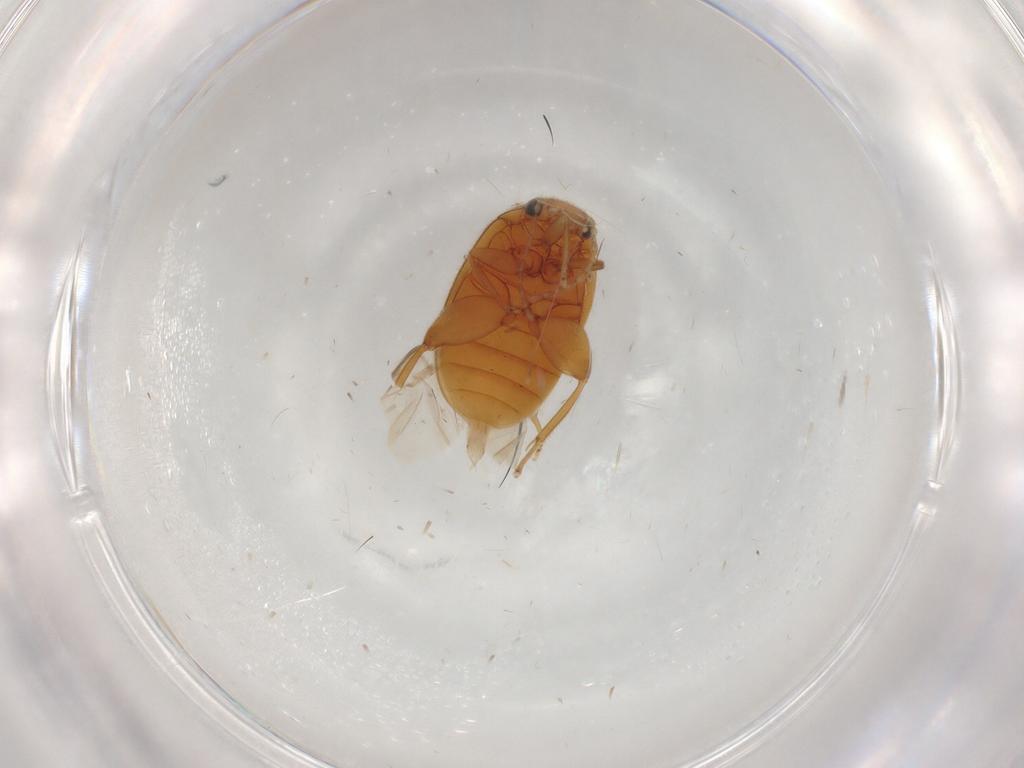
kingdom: Animalia
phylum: Arthropoda
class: Insecta
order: Coleoptera
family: Scirtidae
